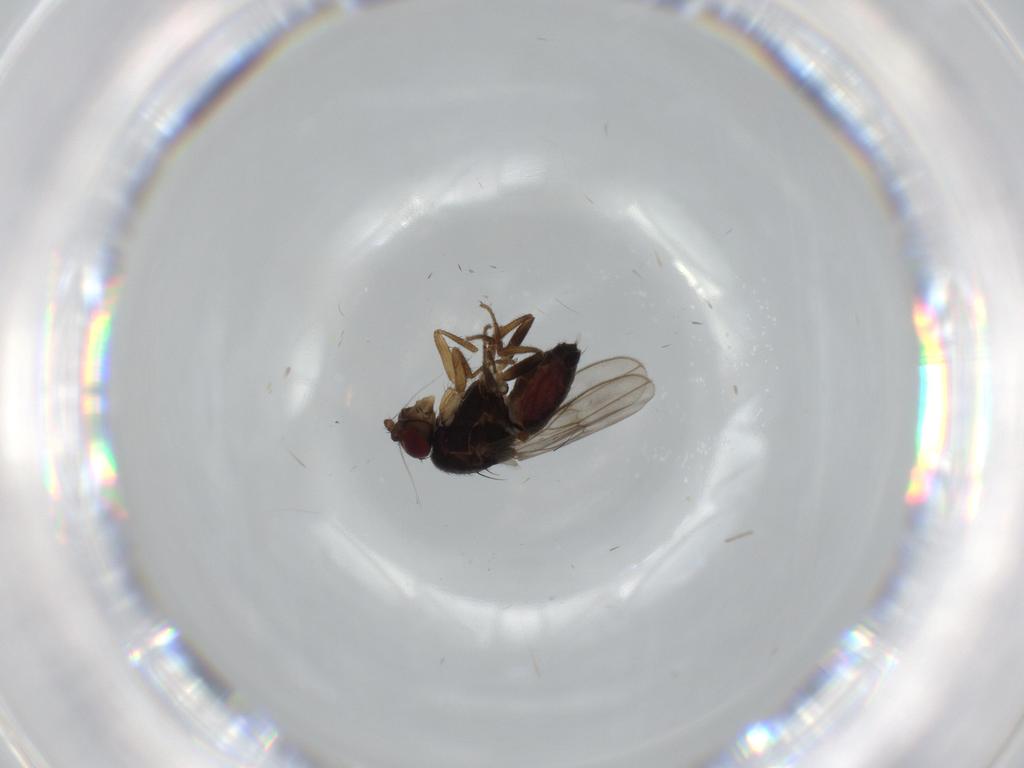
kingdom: Animalia
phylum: Arthropoda
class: Insecta
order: Diptera
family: Sphaeroceridae
